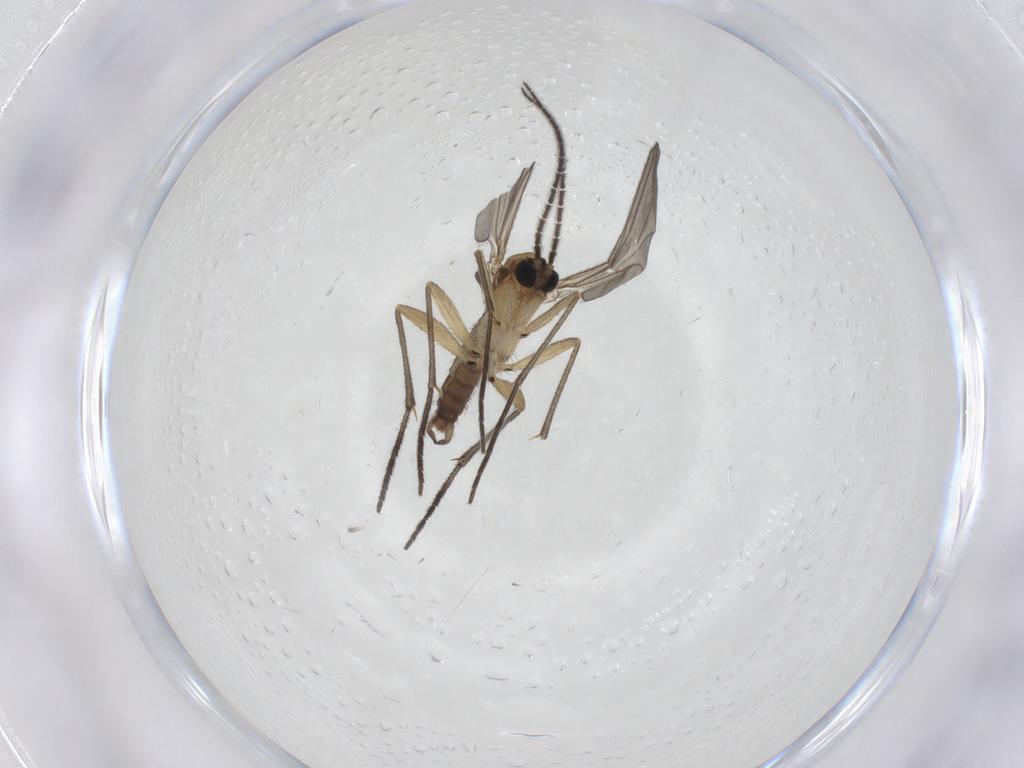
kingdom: Animalia
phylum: Arthropoda
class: Insecta
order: Diptera
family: Sciaridae
